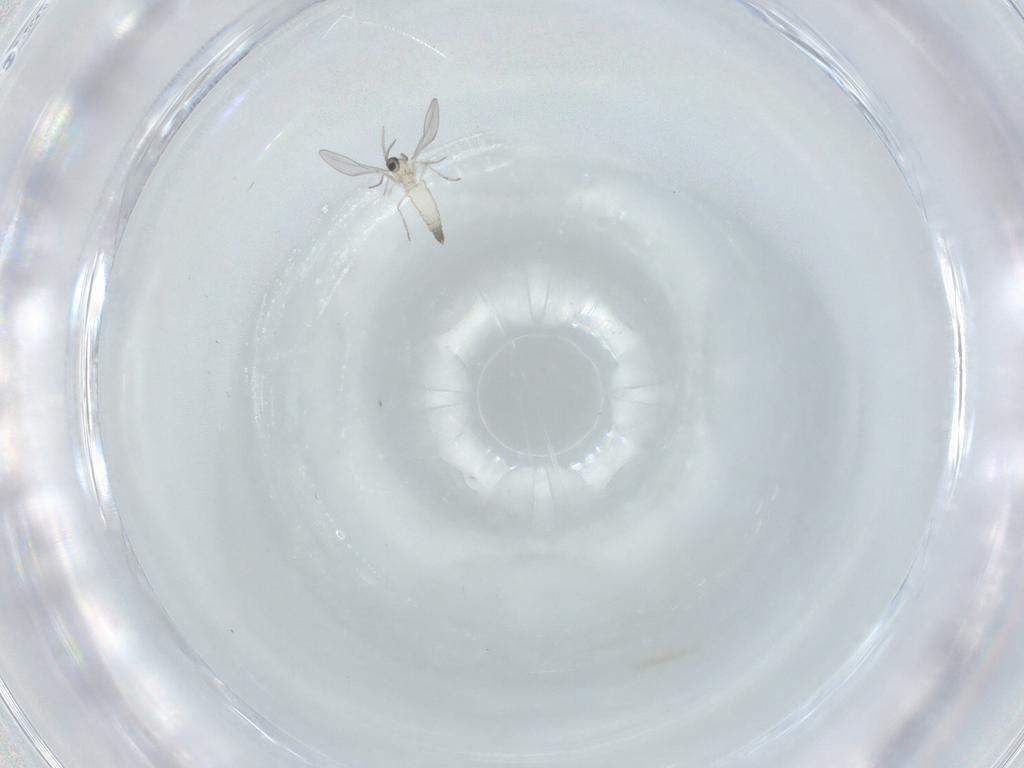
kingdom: Animalia
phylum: Arthropoda
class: Insecta
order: Diptera
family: Cecidomyiidae
